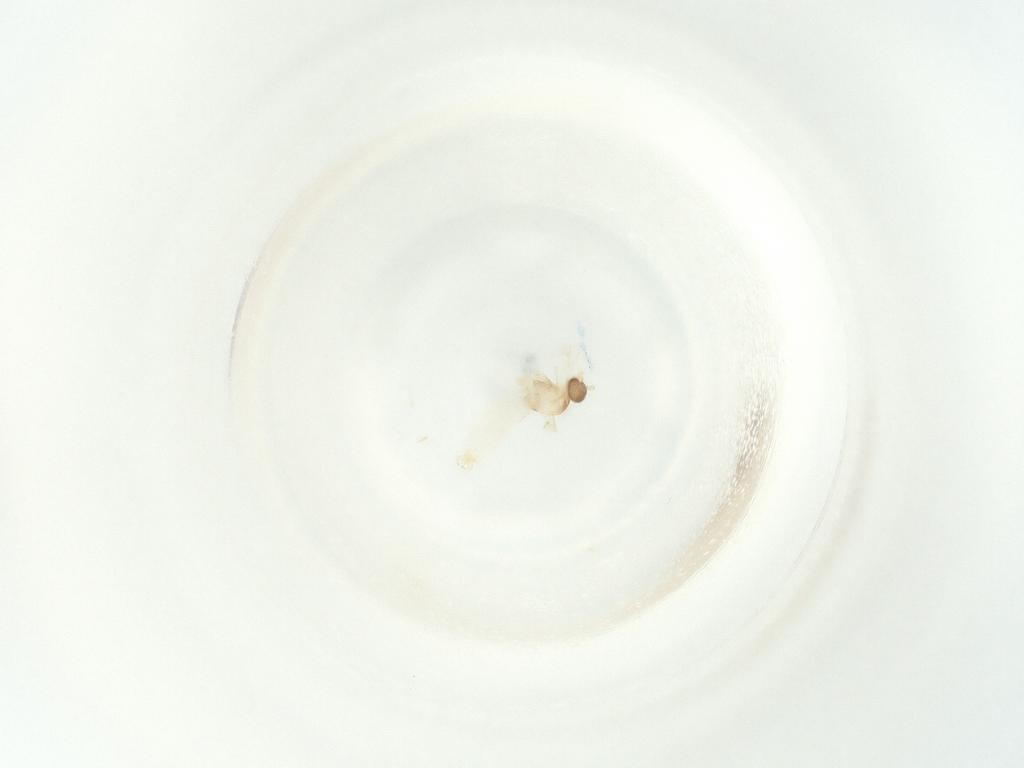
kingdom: Animalia
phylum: Arthropoda
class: Insecta
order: Diptera
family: Cecidomyiidae
